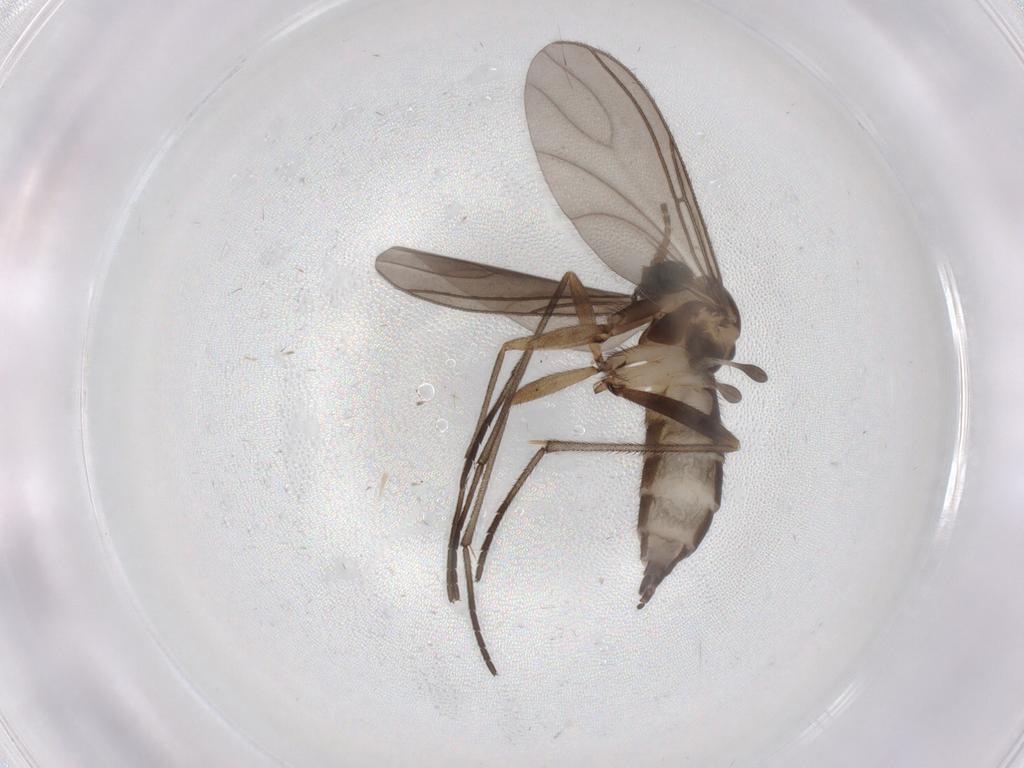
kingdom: Animalia
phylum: Arthropoda
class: Insecta
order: Diptera
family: Sciaridae
